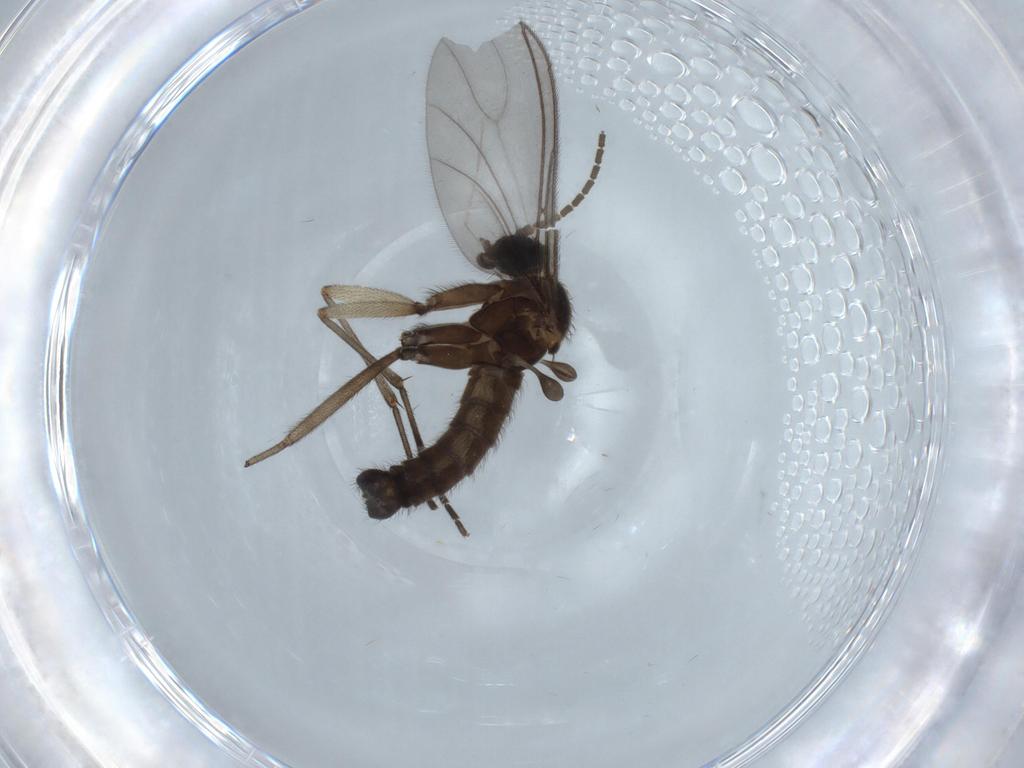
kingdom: Animalia
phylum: Arthropoda
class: Insecta
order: Diptera
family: Sciaridae
